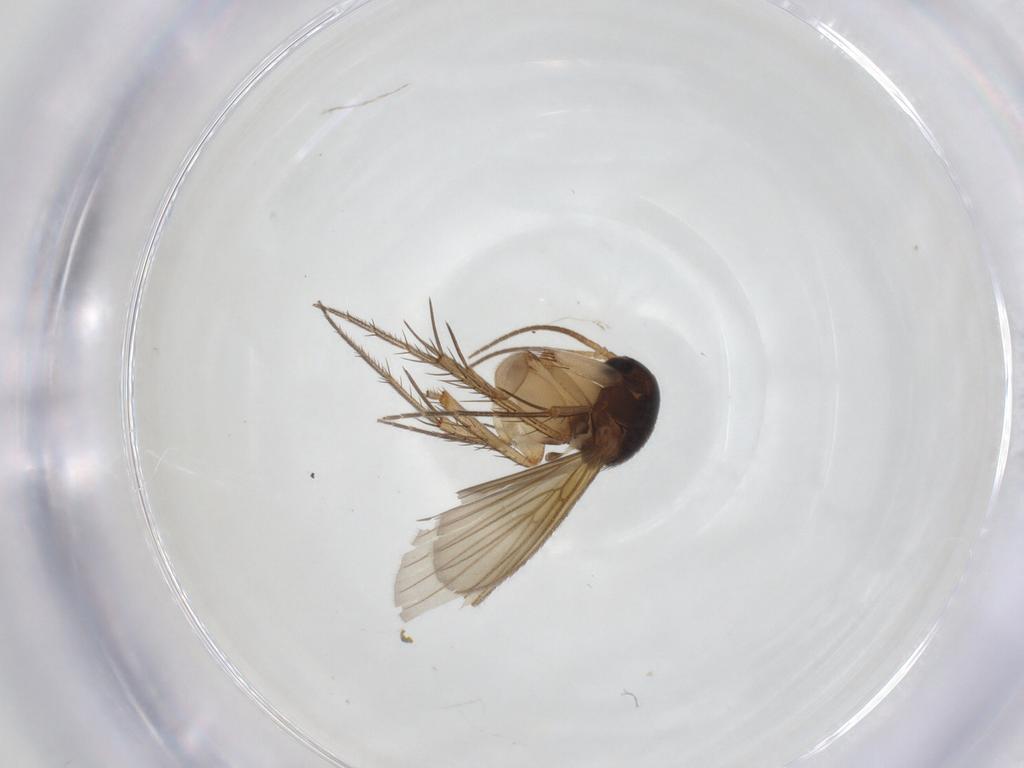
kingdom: Animalia
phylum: Arthropoda
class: Insecta
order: Diptera
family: Mycetophilidae
